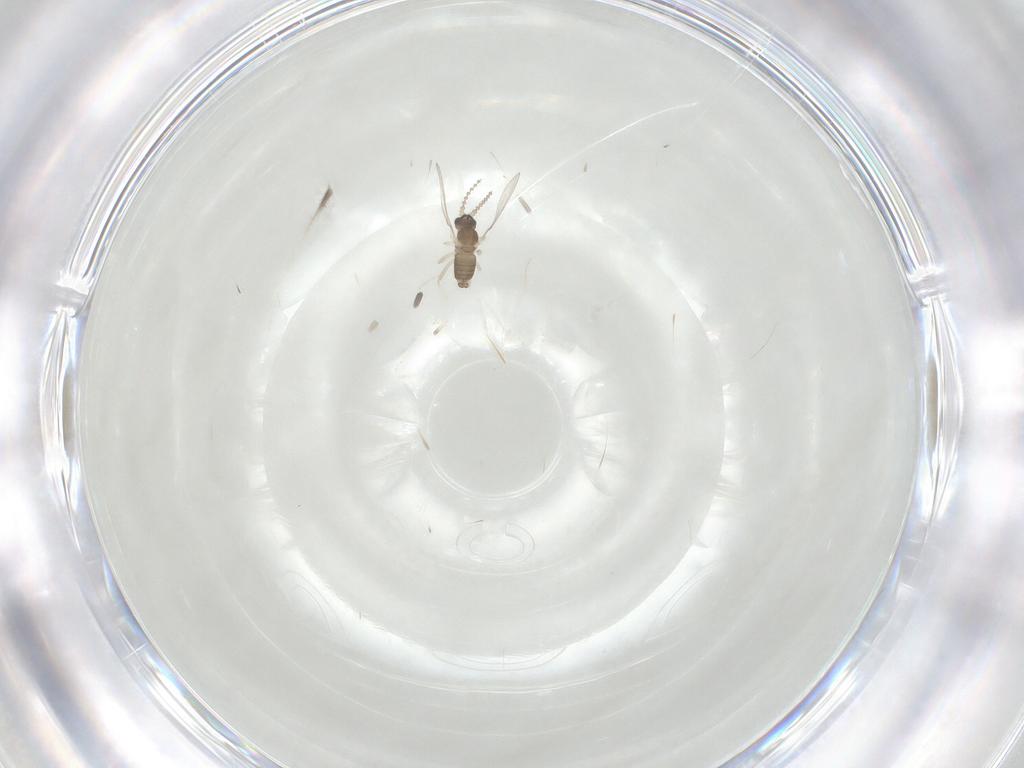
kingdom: Animalia
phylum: Arthropoda
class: Insecta
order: Diptera
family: Cecidomyiidae
